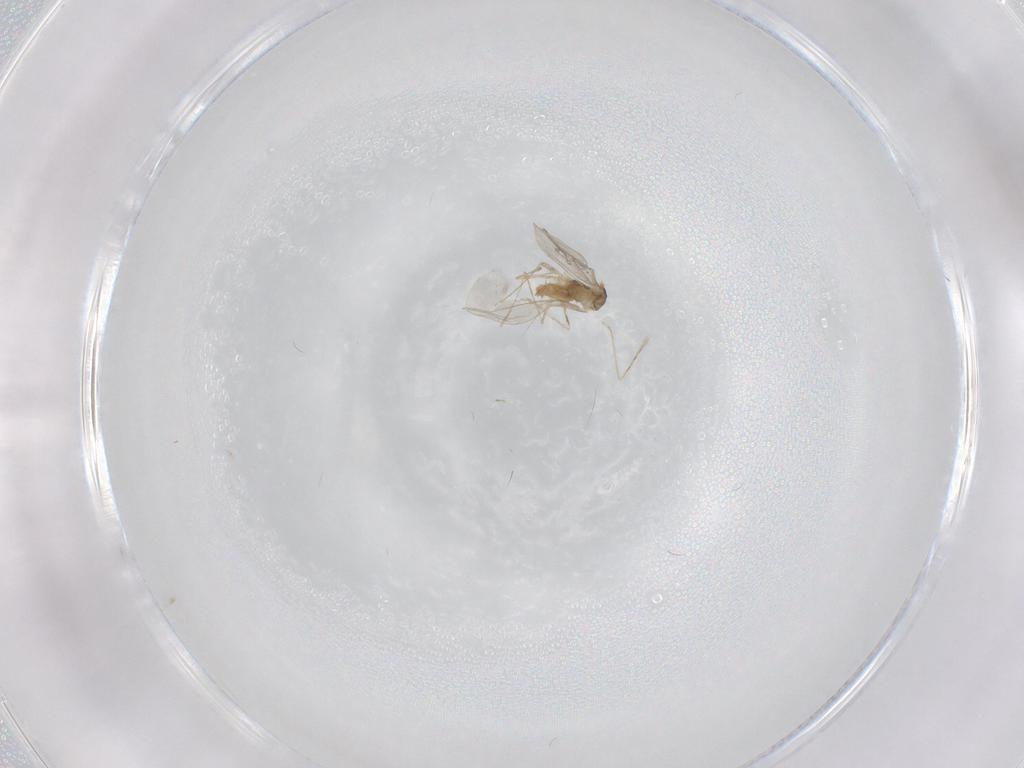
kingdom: Animalia
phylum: Arthropoda
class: Insecta
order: Diptera
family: Cecidomyiidae
